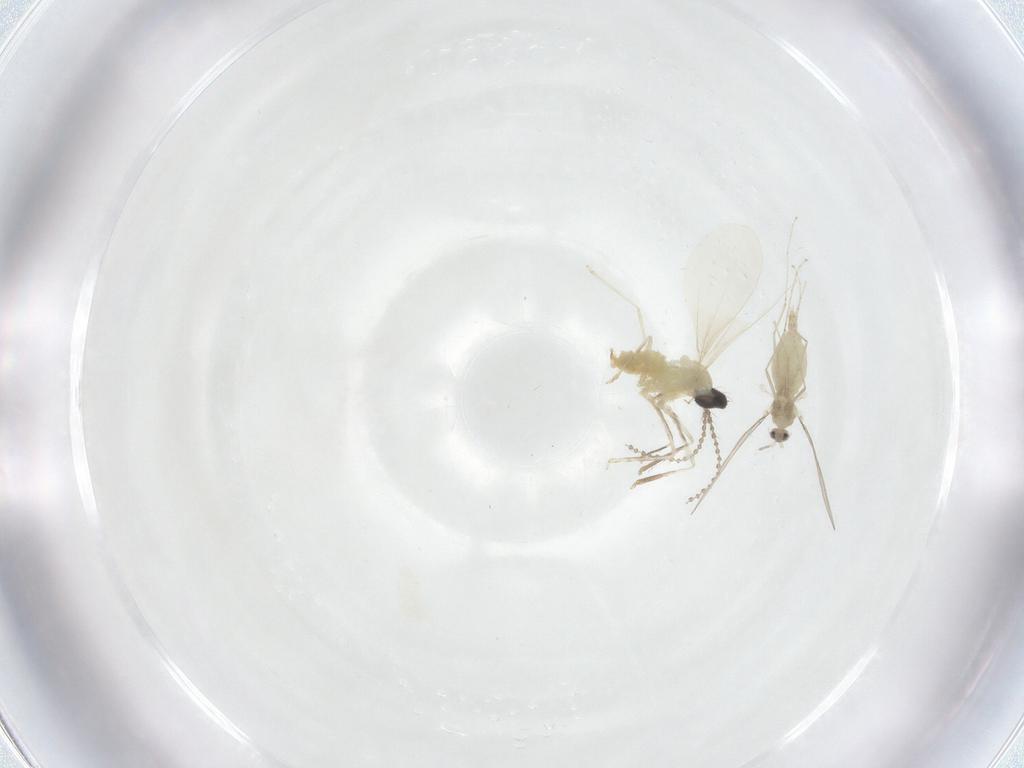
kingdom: Animalia
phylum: Arthropoda
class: Insecta
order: Diptera
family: Cecidomyiidae
